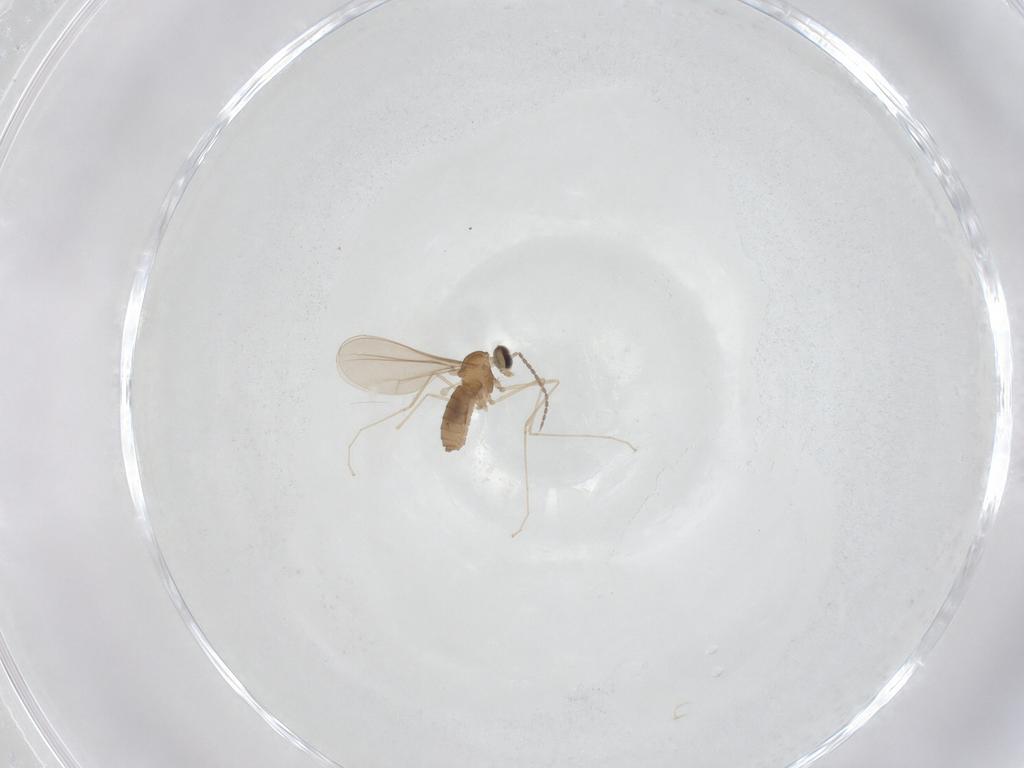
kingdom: Animalia
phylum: Arthropoda
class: Insecta
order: Diptera
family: Cecidomyiidae
